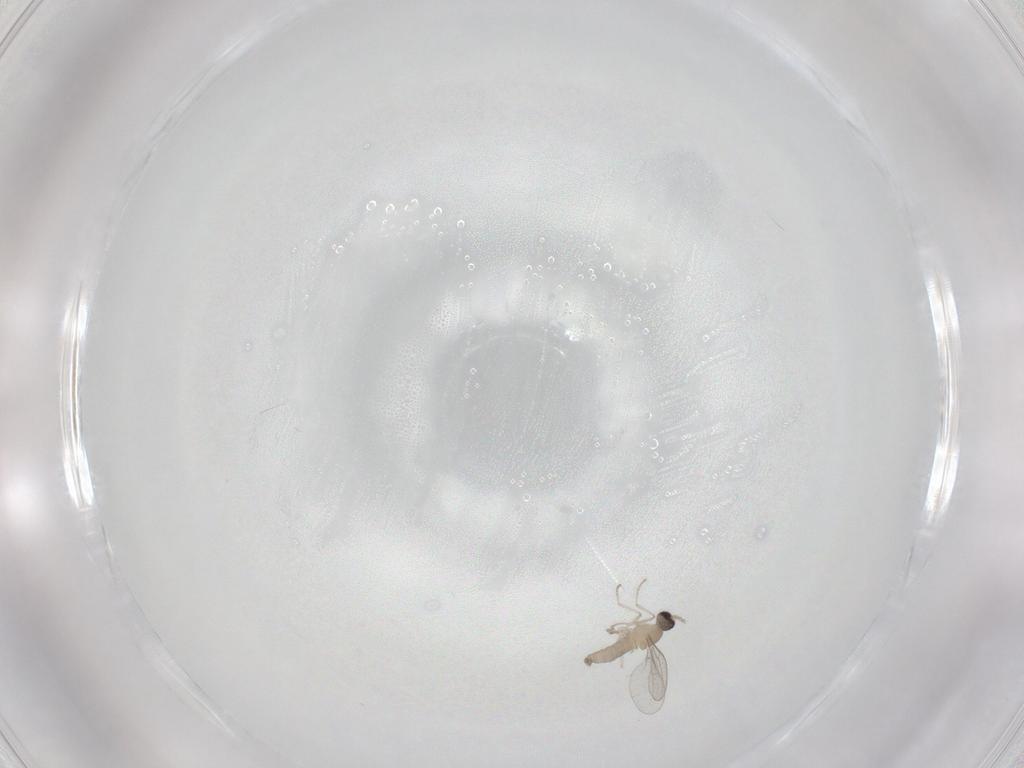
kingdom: Animalia
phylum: Arthropoda
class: Insecta
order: Diptera
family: Cecidomyiidae
